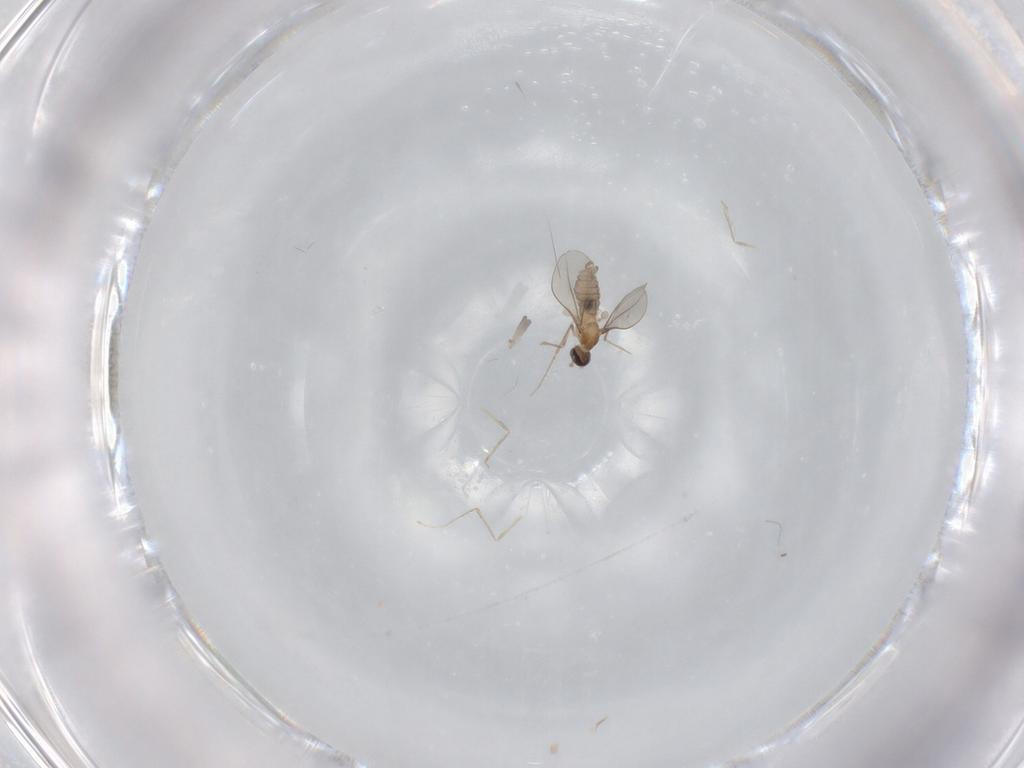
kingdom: Animalia
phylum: Arthropoda
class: Insecta
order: Diptera
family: Cecidomyiidae
